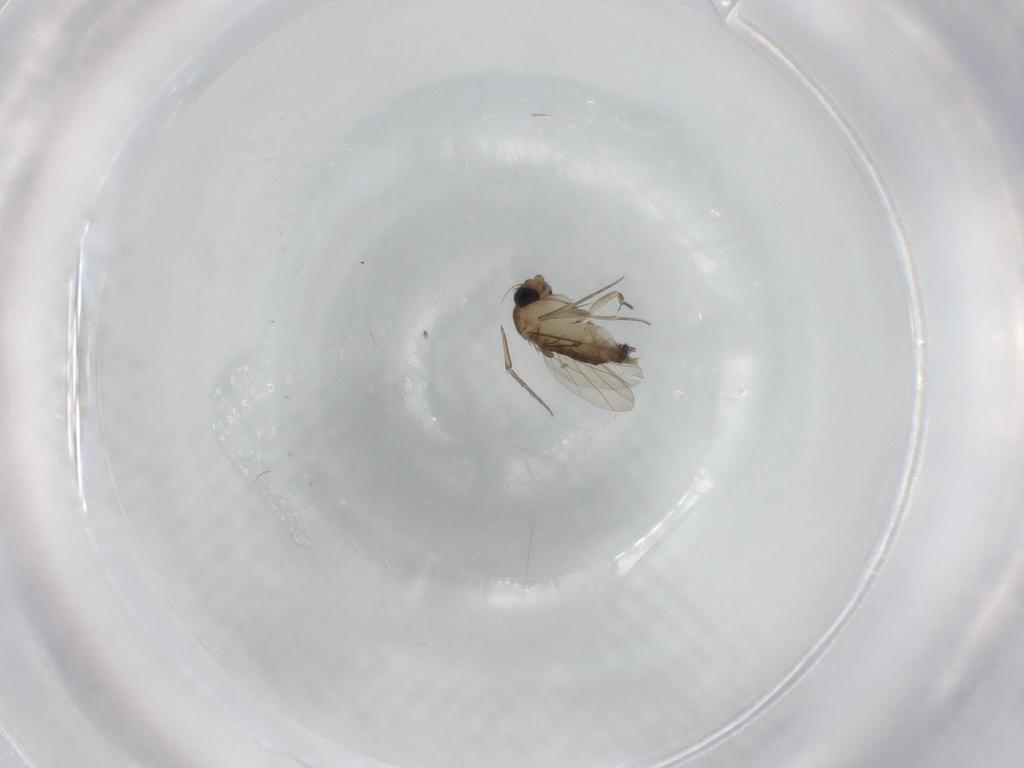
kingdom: Animalia
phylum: Arthropoda
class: Insecta
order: Diptera
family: Phoridae
